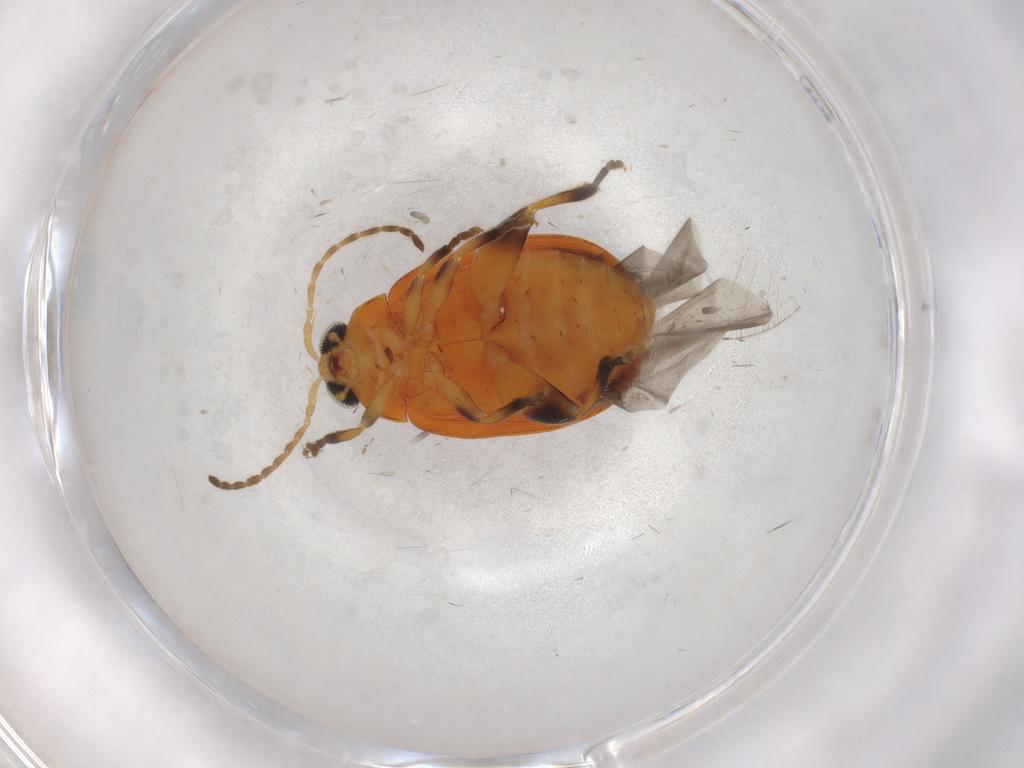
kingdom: Animalia
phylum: Arthropoda
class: Insecta
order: Coleoptera
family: Chrysomelidae
